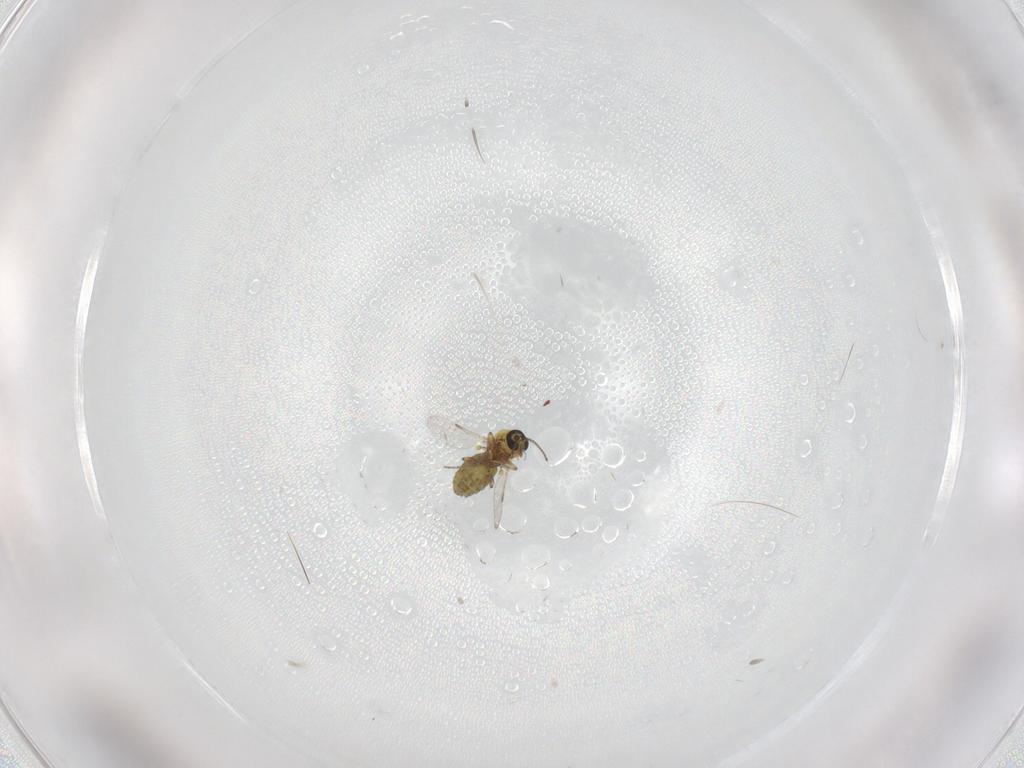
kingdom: Animalia
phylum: Arthropoda
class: Insecta
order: Diptera
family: Ceratopogonidae
